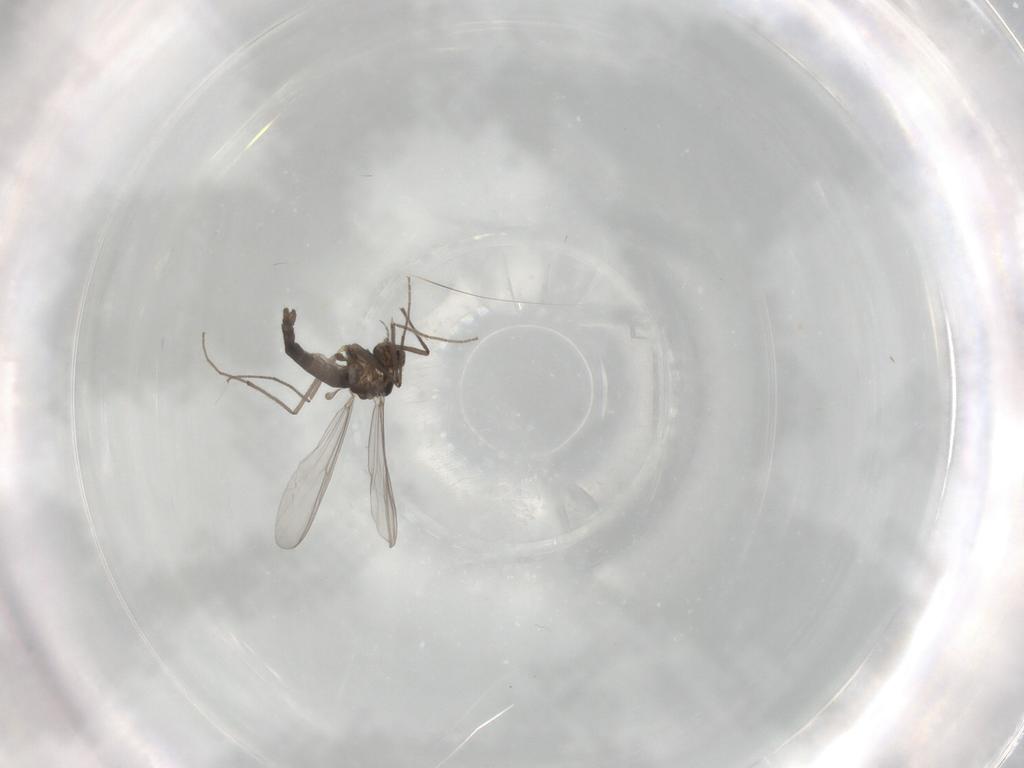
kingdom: Animalia
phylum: Arthropoda
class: Insecta
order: Diptera
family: Chironomidae
